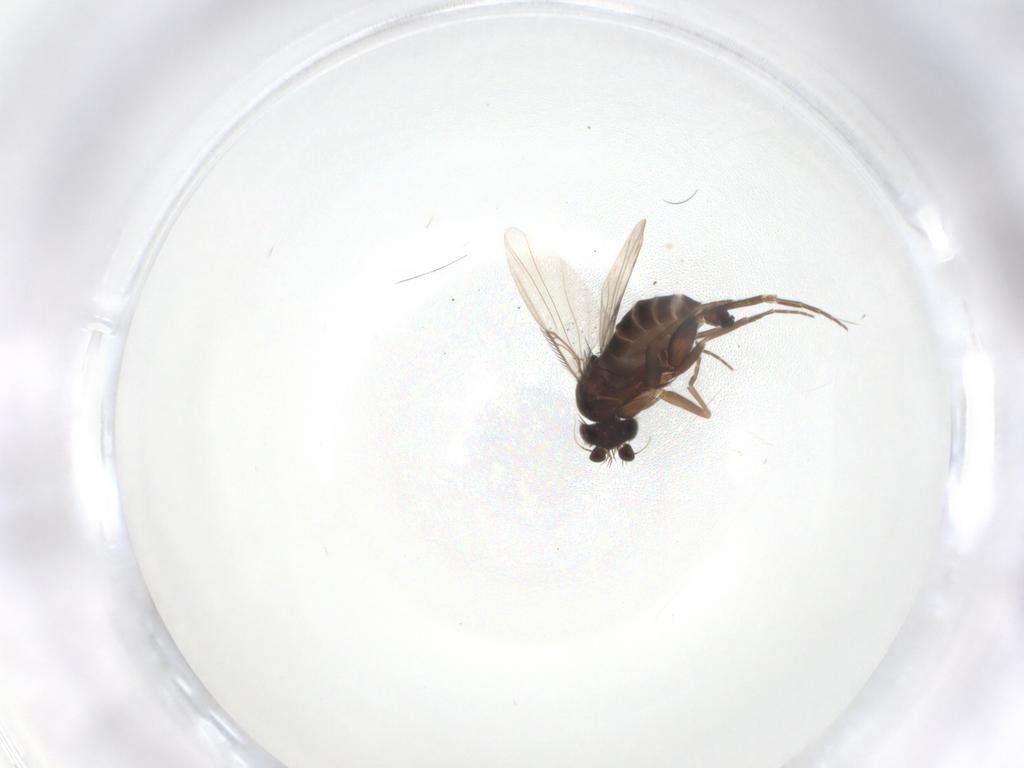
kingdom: Animalia
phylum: Arthropoda
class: Insecta
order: Diptera
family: Phoridae
